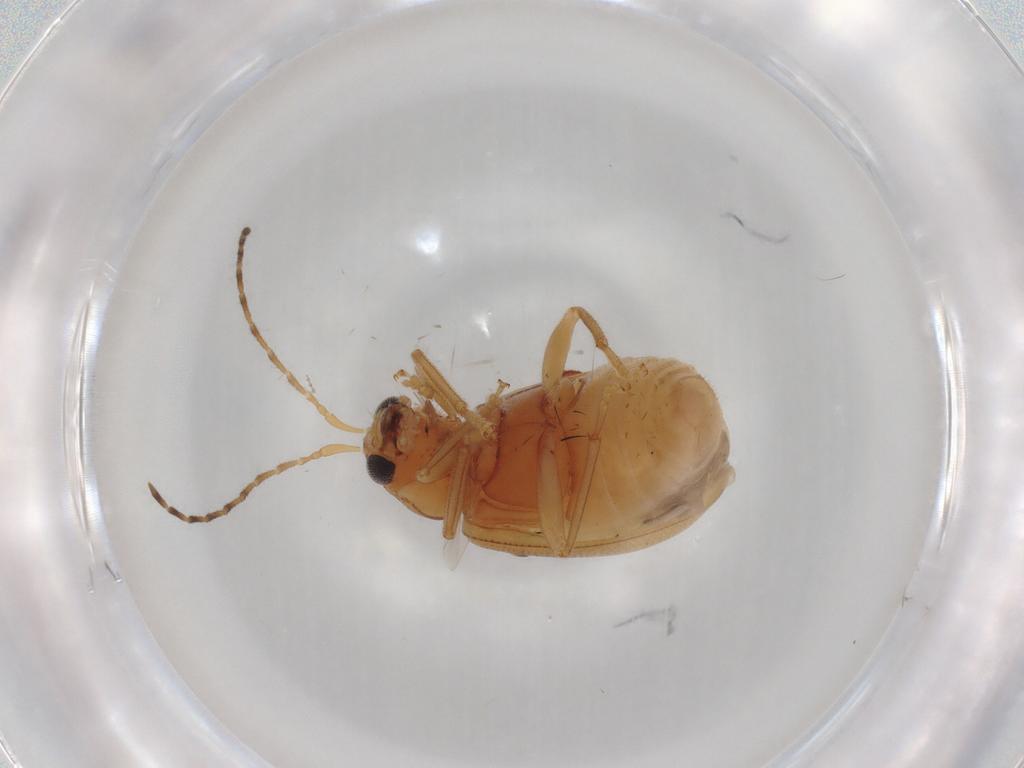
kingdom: Animalia
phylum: Arthropoda
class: Insecta
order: Coleoptera
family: Chrysomelidae
